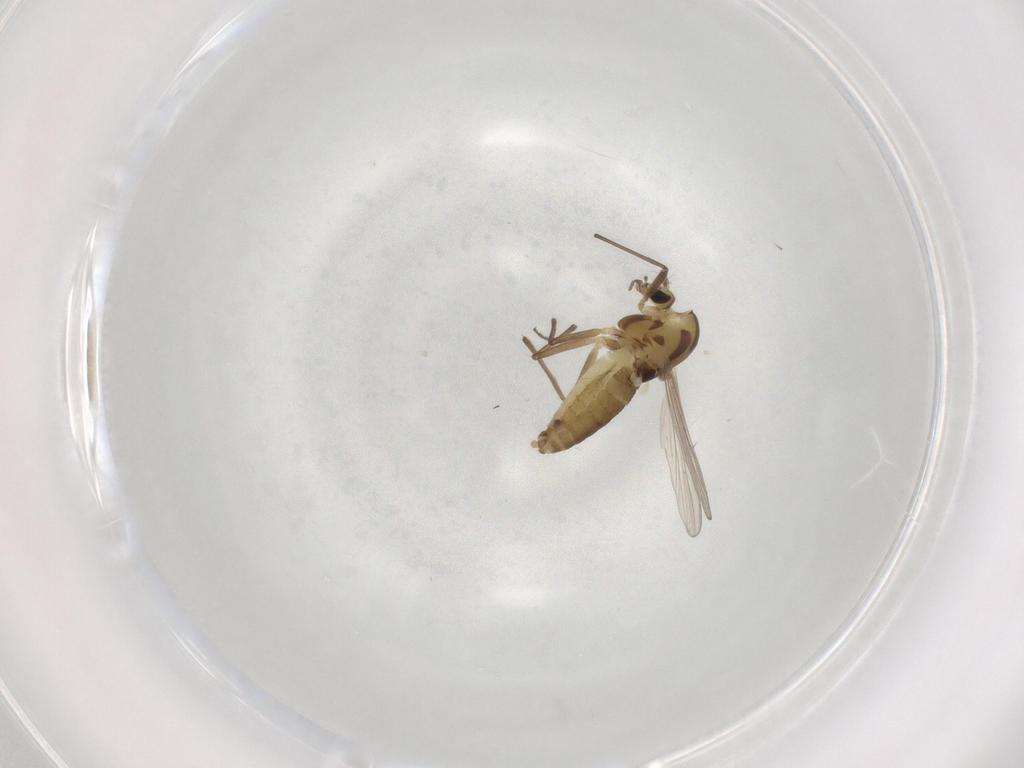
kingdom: Animalia
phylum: Arthropoda
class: Insecta
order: Diptera
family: Chironomidae
